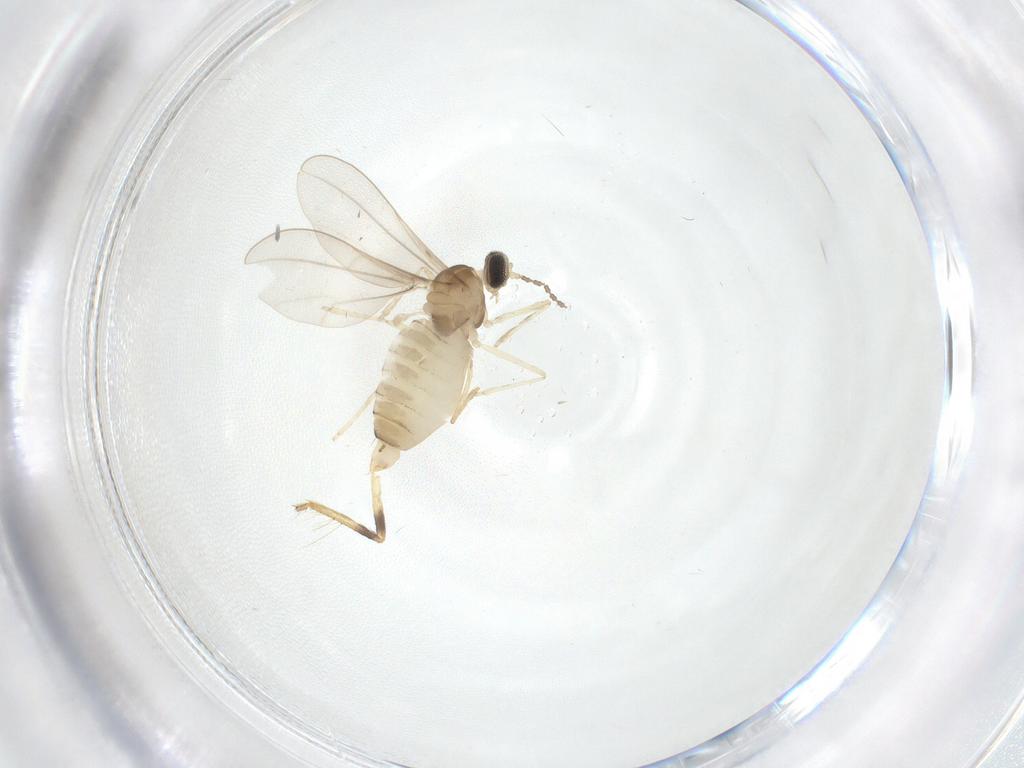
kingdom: Animalia
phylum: Arthropoda
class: Insecta
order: Diptera
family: Cecidomyiidae
